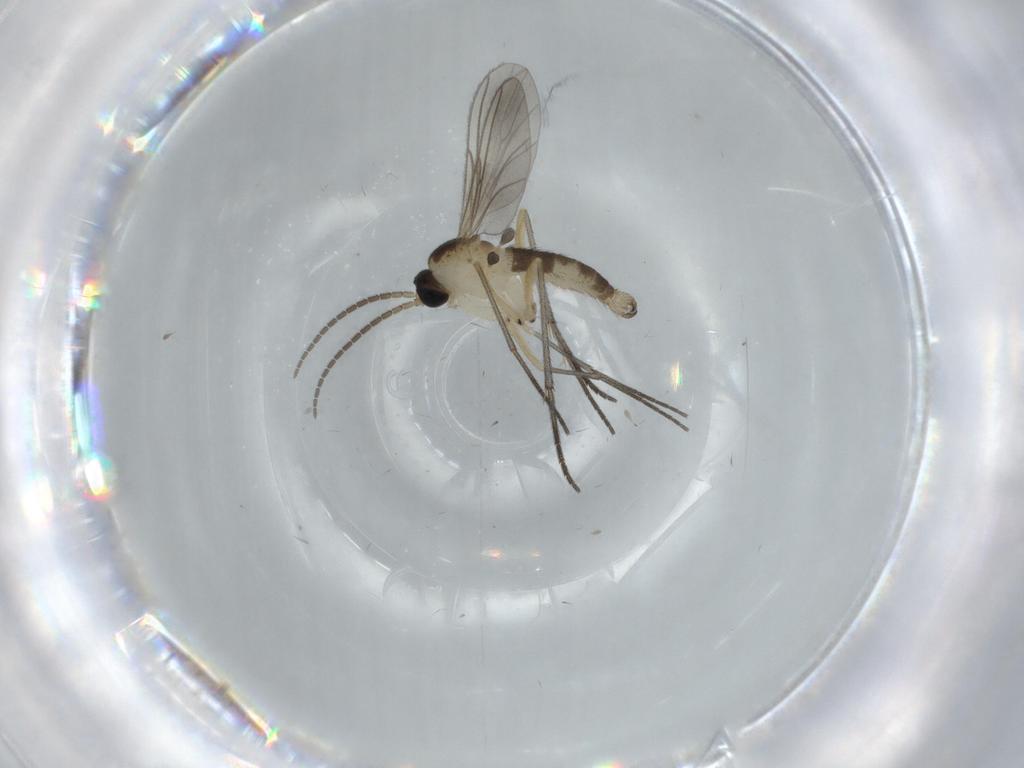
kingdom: Animalia
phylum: Arthropoda
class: Insecta
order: Diptera
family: Sciaridae
